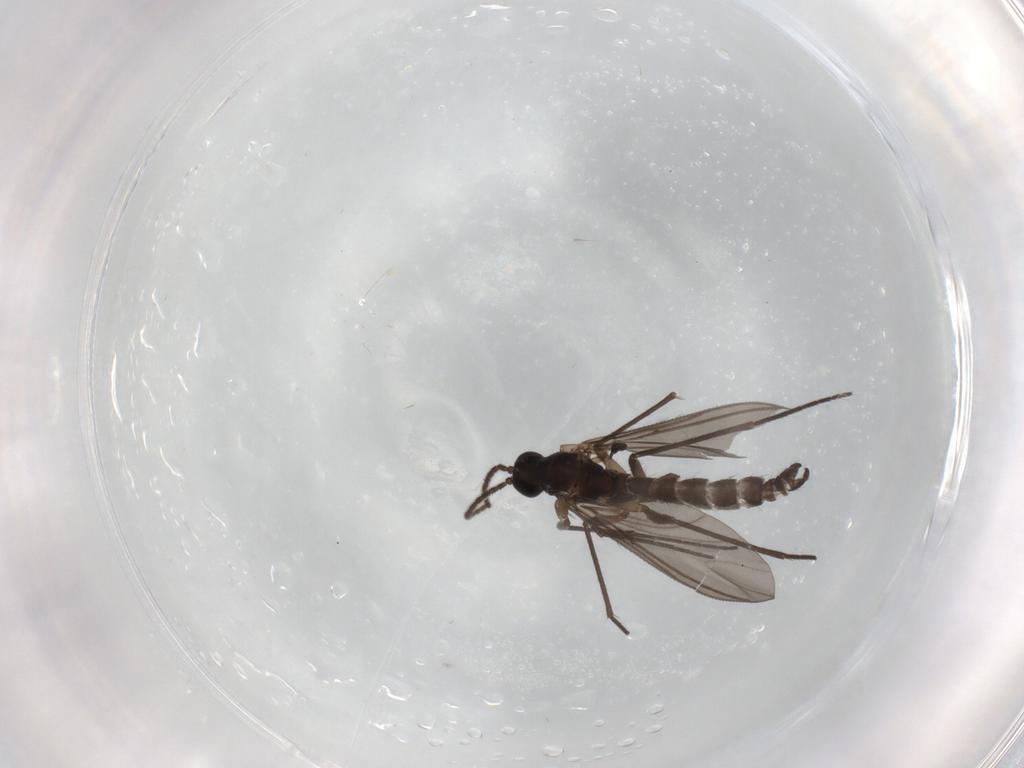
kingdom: Animalia
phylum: Arthropoda
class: Insecta
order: Diptera
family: Sciaridae
